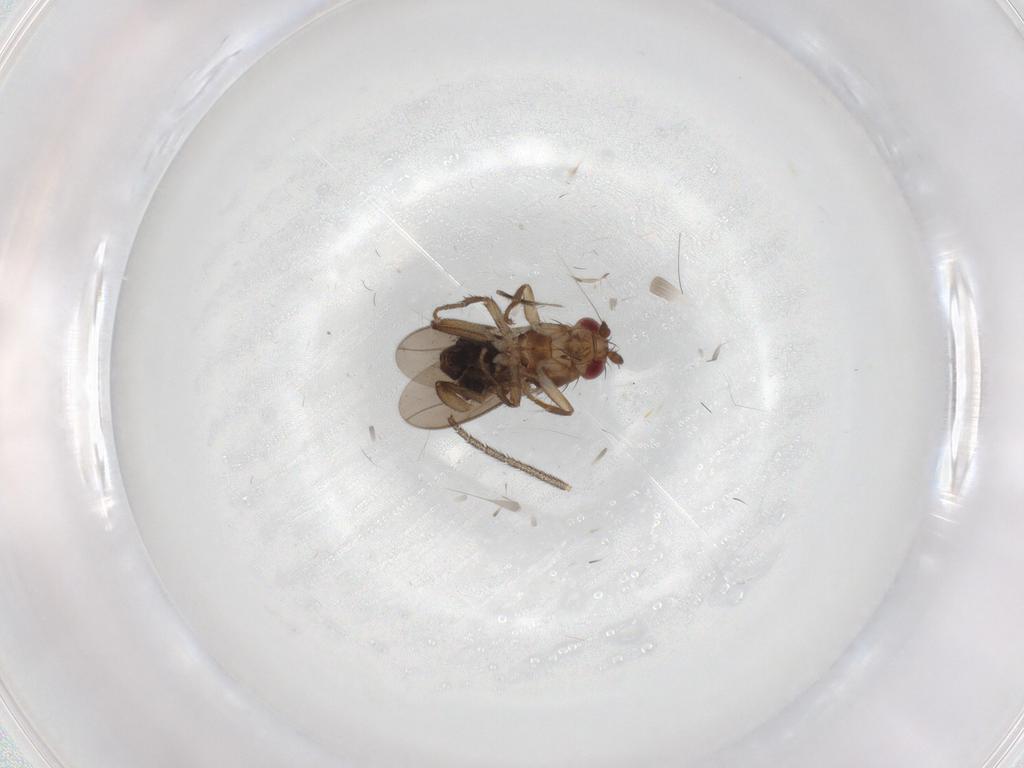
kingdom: Animalia
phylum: Arthropoda
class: Insecta
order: Diptera
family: Sphaeroceridae
